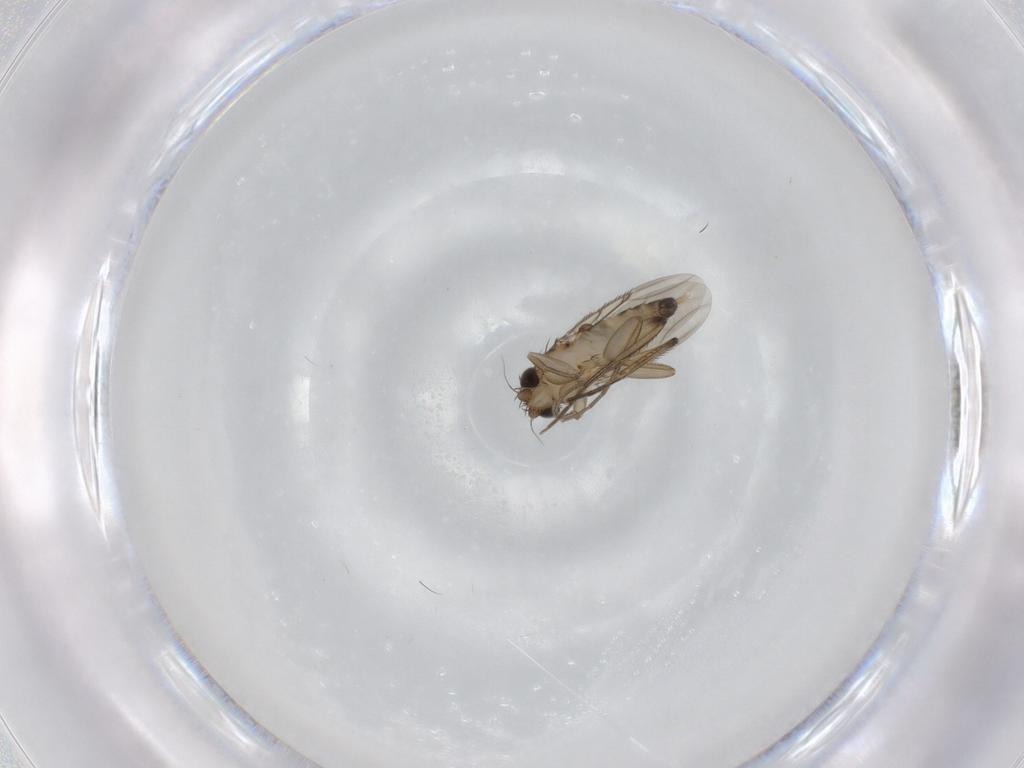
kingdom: Animalia
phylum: Arthropoda
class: Insecta
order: Diptera
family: Phoridae
